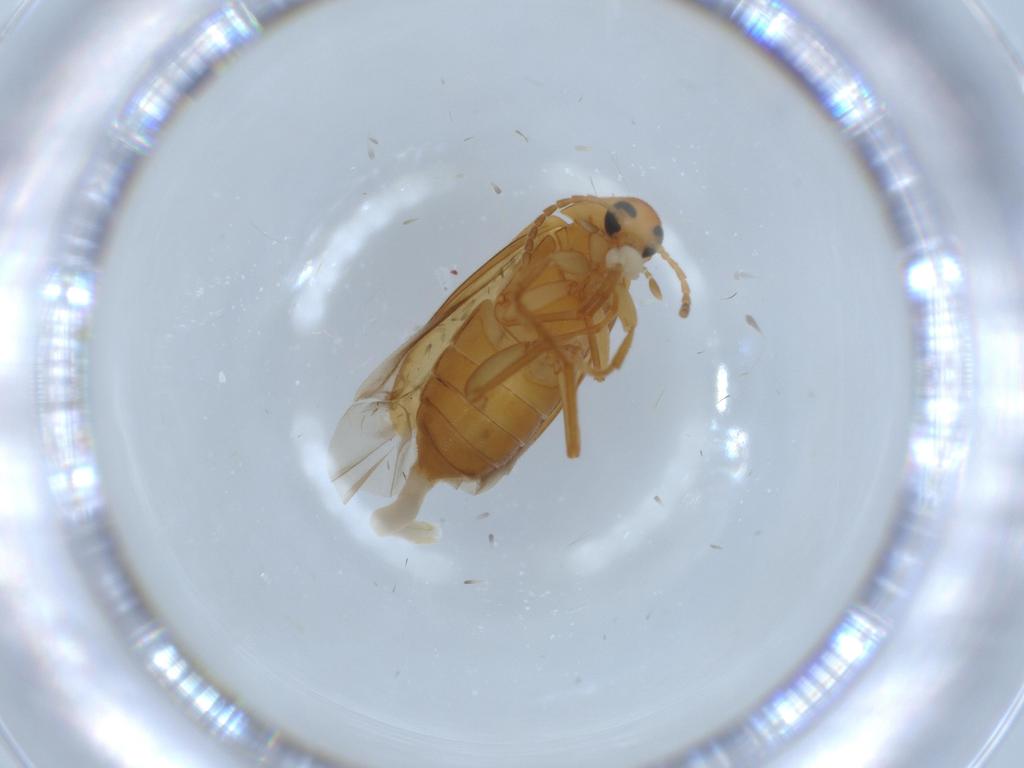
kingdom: Animalia
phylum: Arthropoda
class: Insecta
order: Coleoptera
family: Scraptiidae
